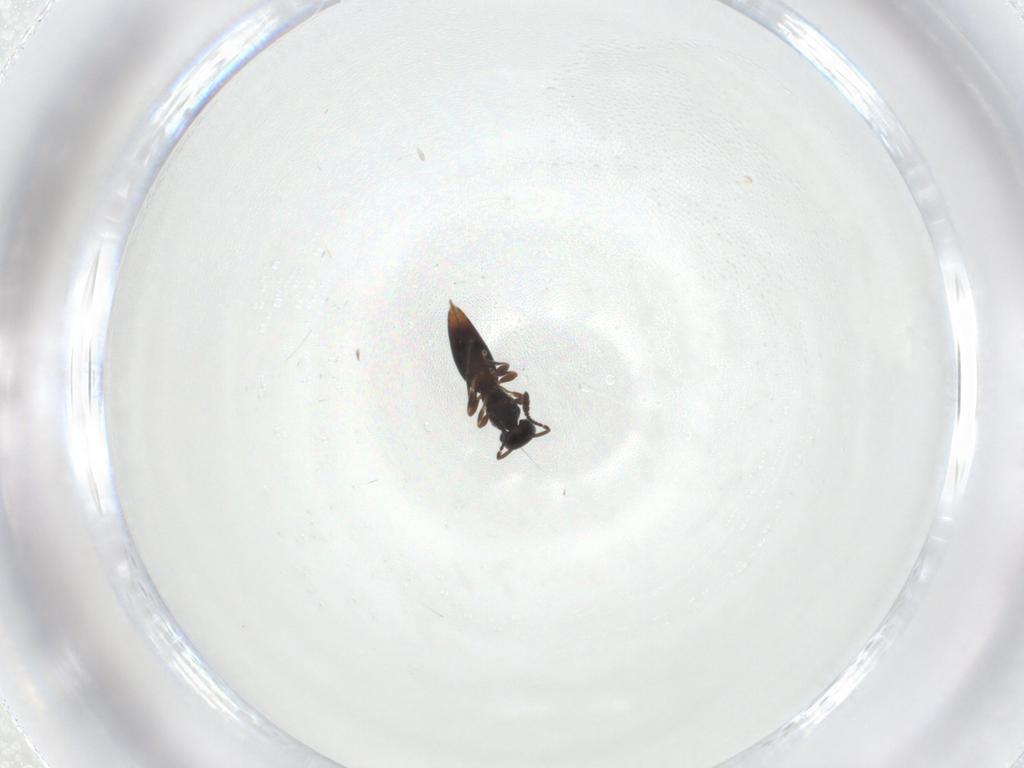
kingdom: Animalia
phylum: Arthropoda
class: Insecta
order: Hymenoptera
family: Scelionidae
